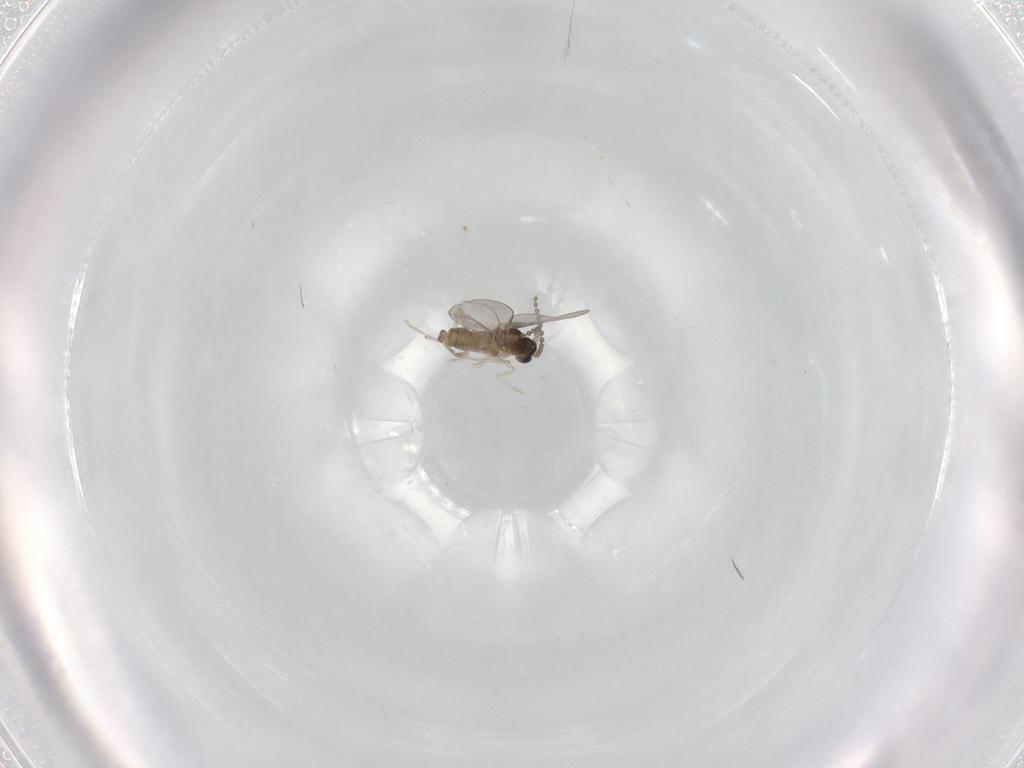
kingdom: Animalia
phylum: Arthropoda
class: Insecta
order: Diptera
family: Cecidomyiidae
